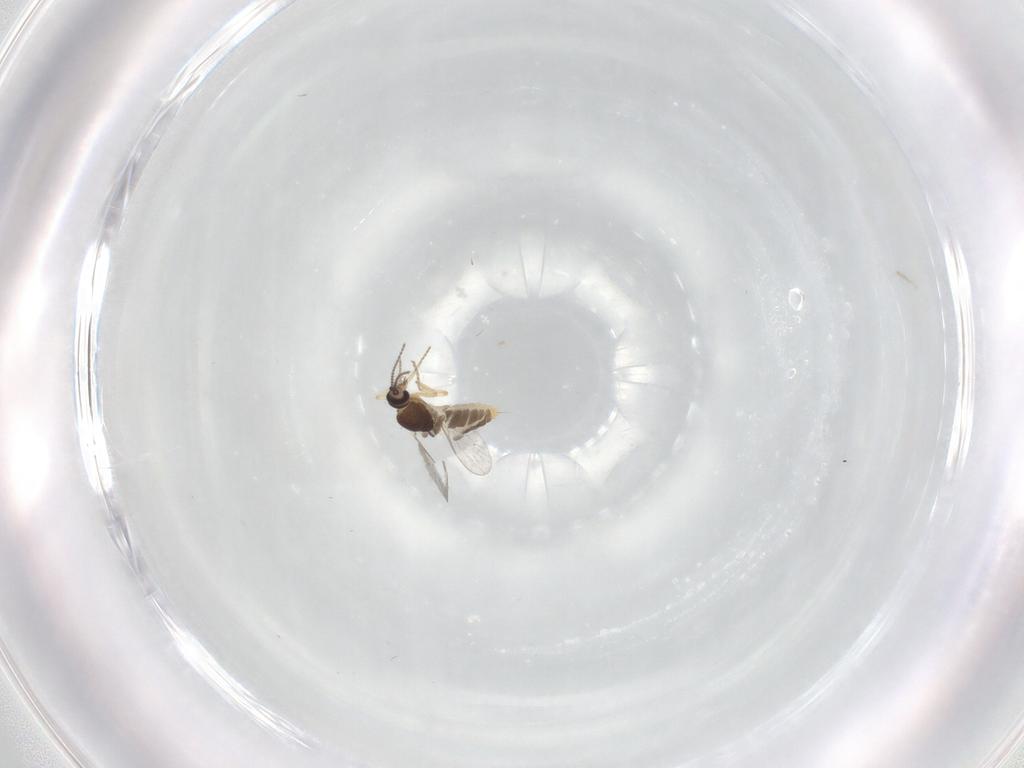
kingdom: Animalia
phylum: Arthropoda
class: Insecta
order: Diptera
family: Ceratopogonidae
